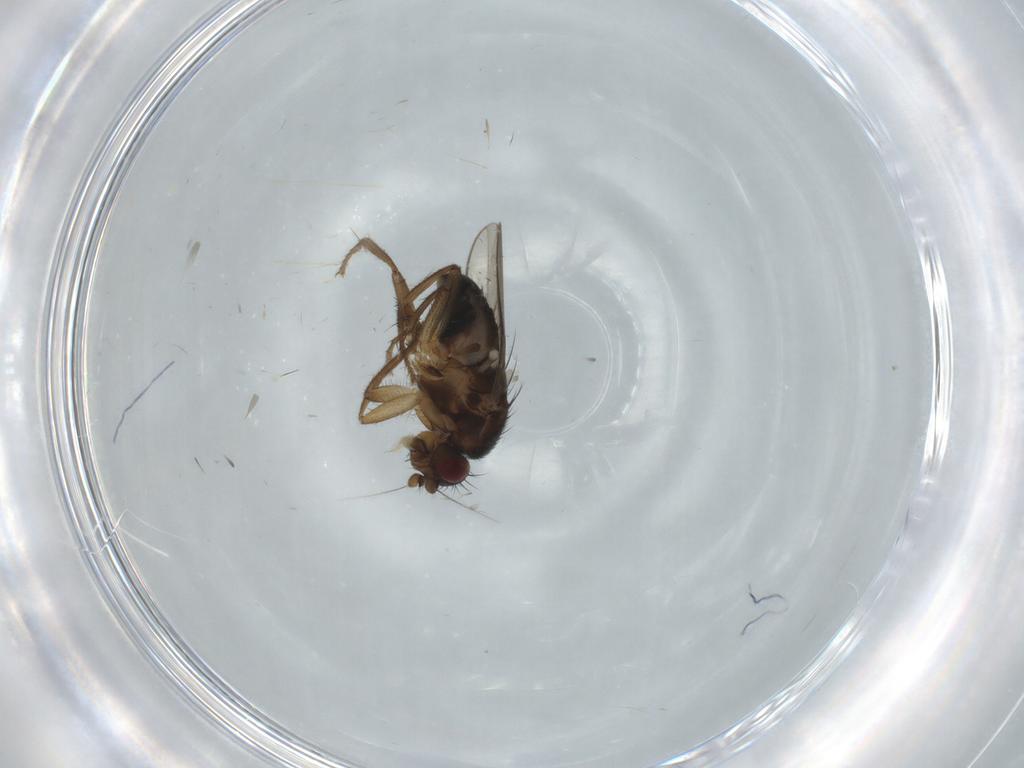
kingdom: Animalia
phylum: Arthropoda
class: Insecta
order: Diptera
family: Sphaeroceridae
